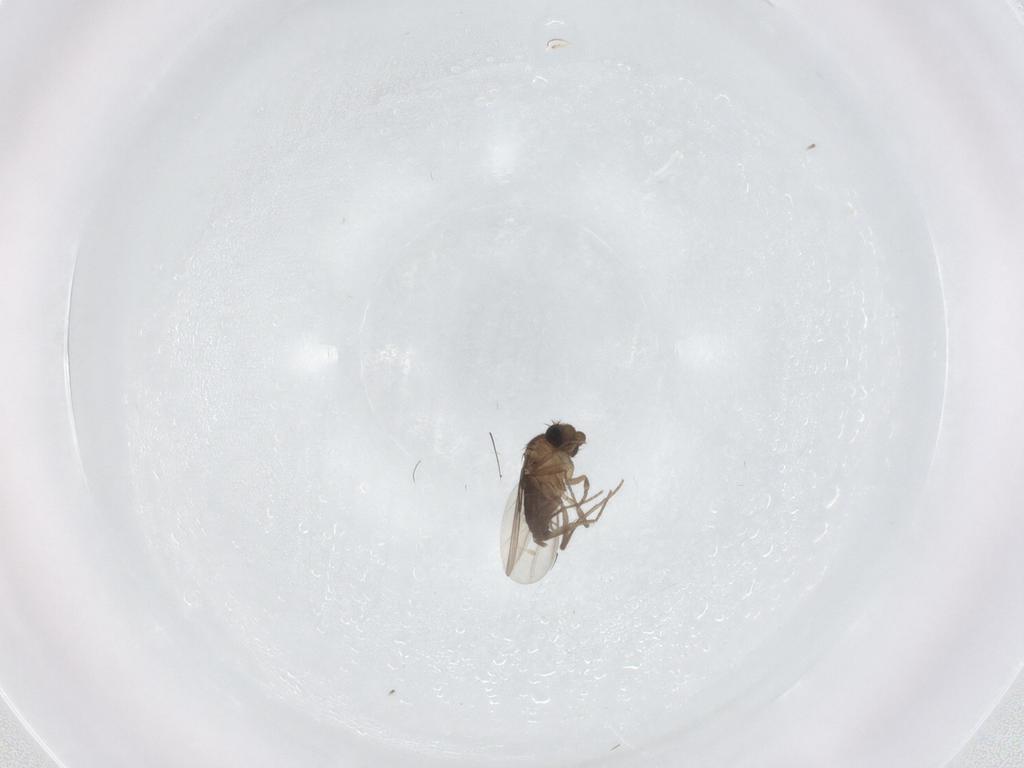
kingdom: Animalia
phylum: Arthropoda
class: Insecta
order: Diptera
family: Phoridae
